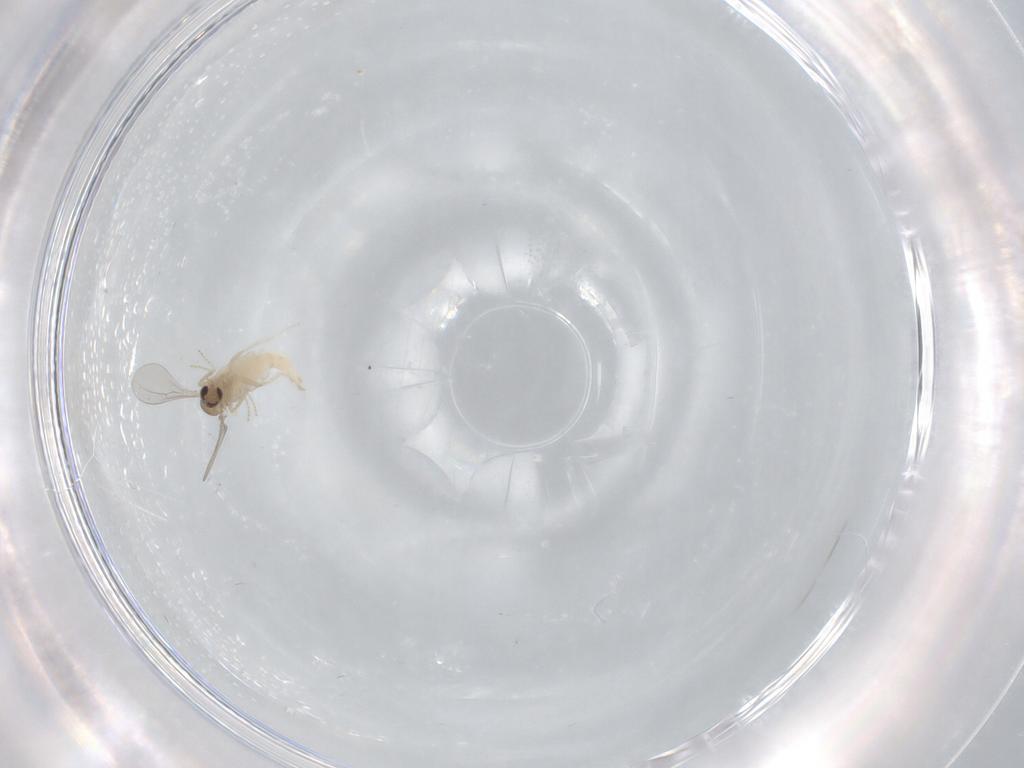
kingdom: Animalia
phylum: Arthropoda
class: Insecta
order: Diptera
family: Cecidomyiidae
